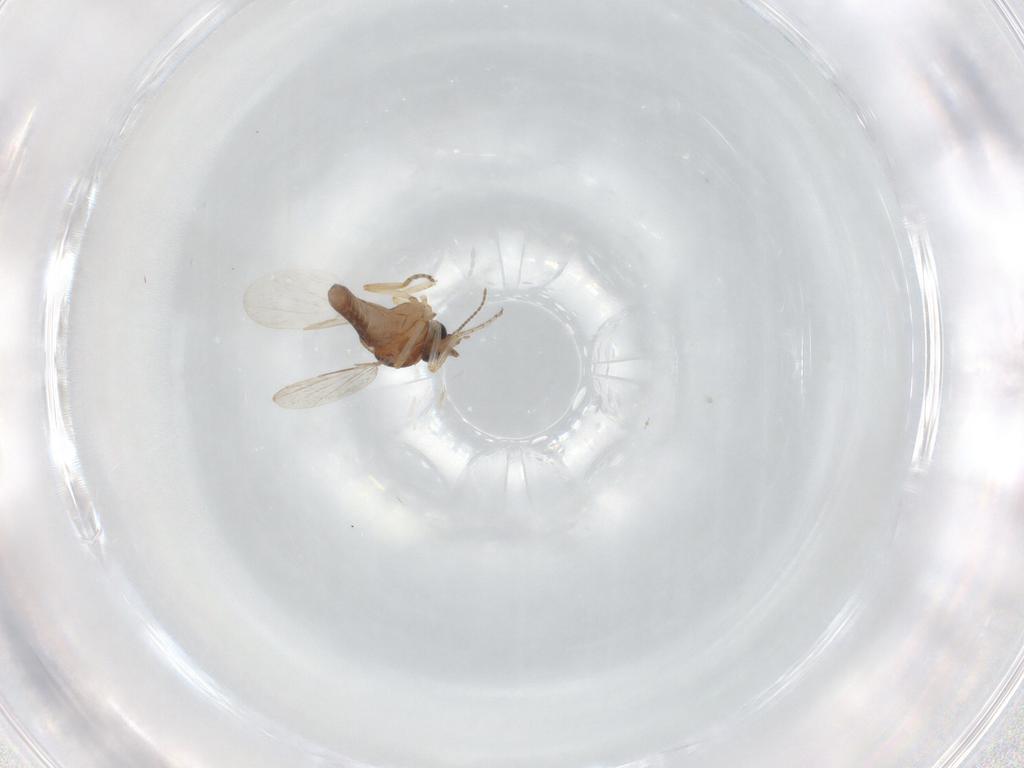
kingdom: Animalia
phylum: Arthropoda
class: Insecta
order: Diptera
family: Ceratopogonidae
